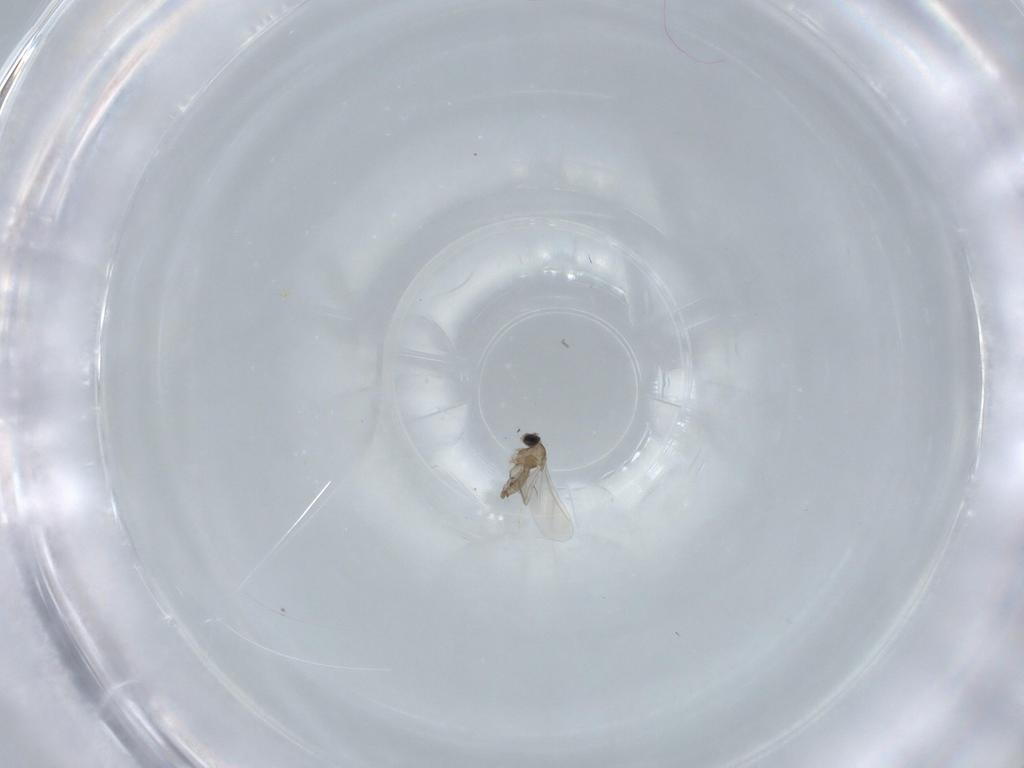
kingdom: Animalia
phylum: Arthropoda
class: Insecta
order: Diptera
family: Cecidomyiidae
